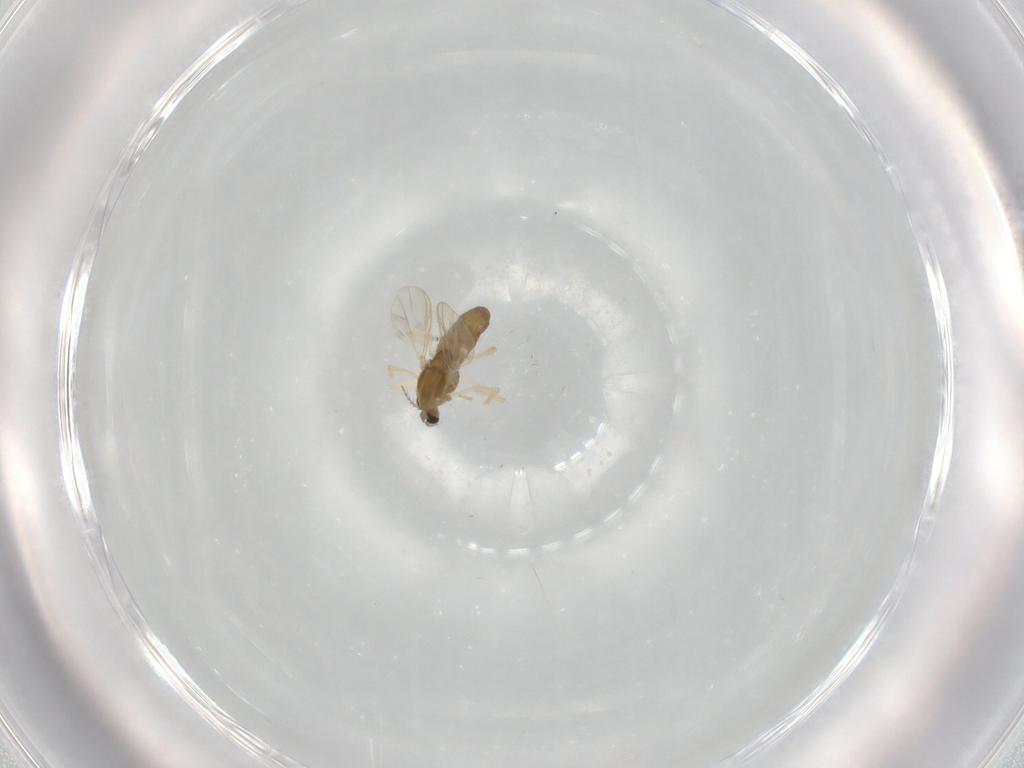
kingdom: Animalia
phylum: Arthropoda
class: Insecta
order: Diptera
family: Chironomidae
